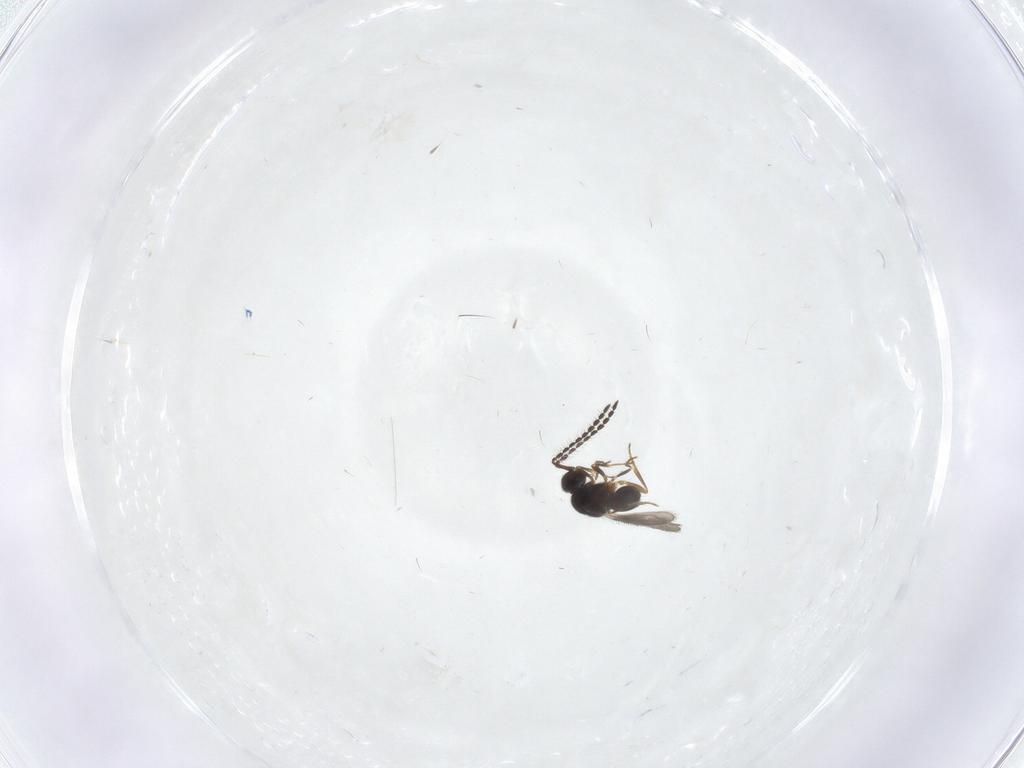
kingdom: Animalia
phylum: Arthropoda
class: Insecta
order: Hymenoptera
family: Ceraphronidae
